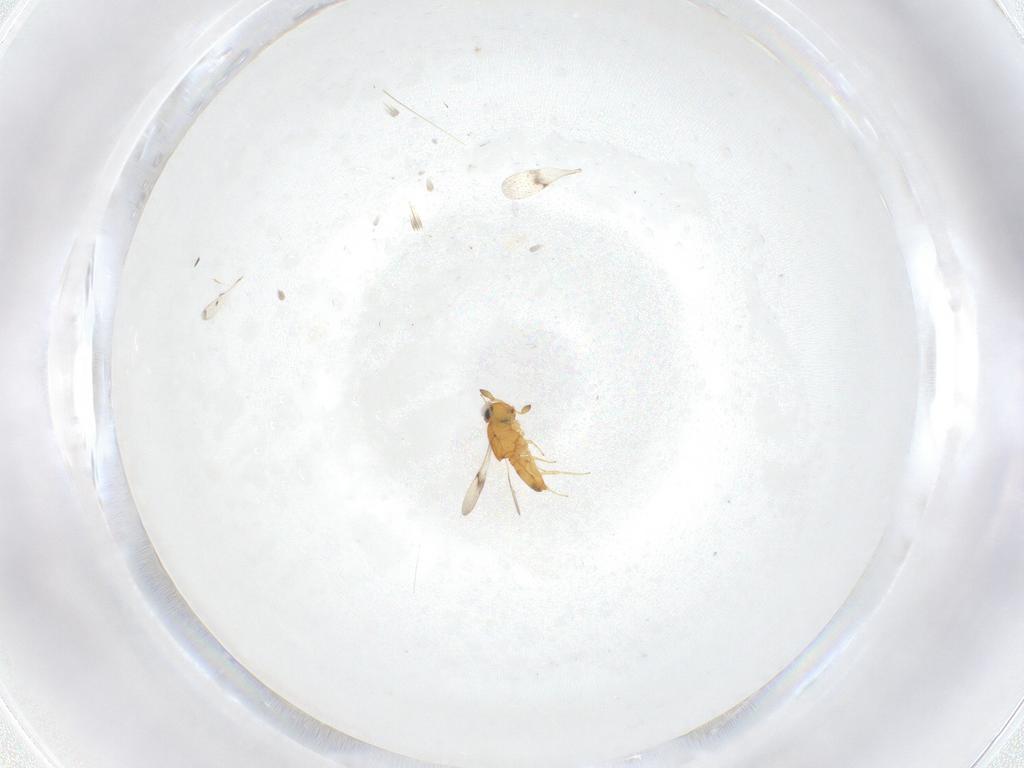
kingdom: Animalia
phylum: Arthropoda
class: Insecta
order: Hymenoptera
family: Scelionidae
